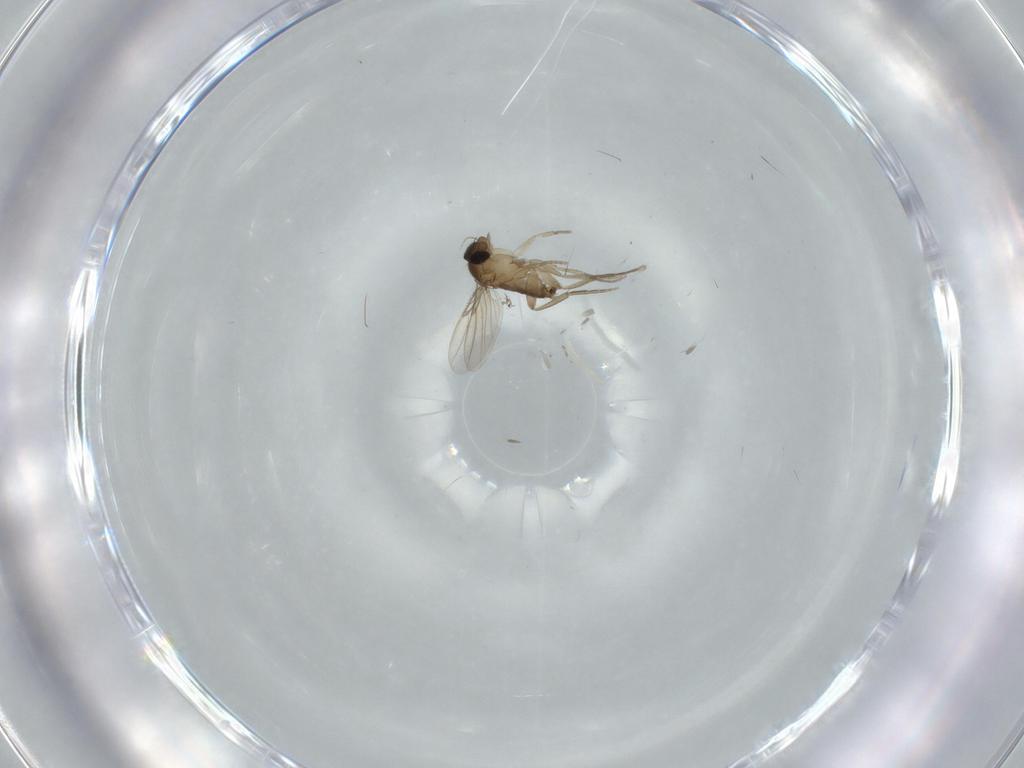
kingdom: Animalia
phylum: Arthropoda
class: Insecta
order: Diptera
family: Phoridae
